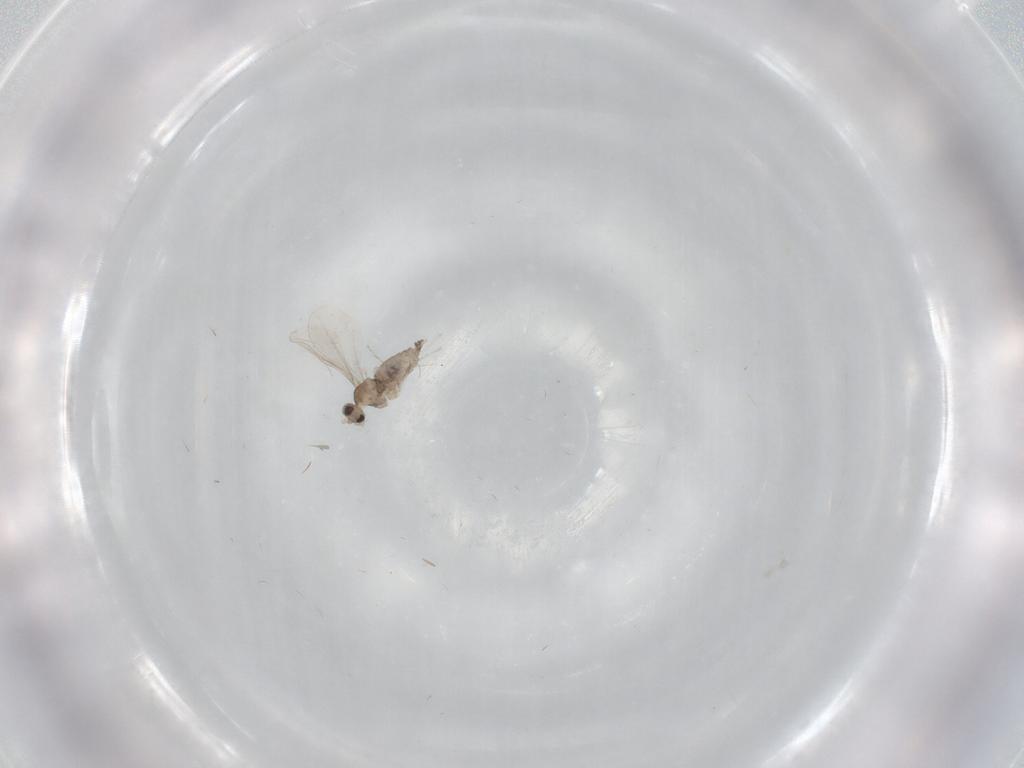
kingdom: Animalia
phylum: Arthropoda
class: Insecta
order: Diptera
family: Cecidomyiidae
